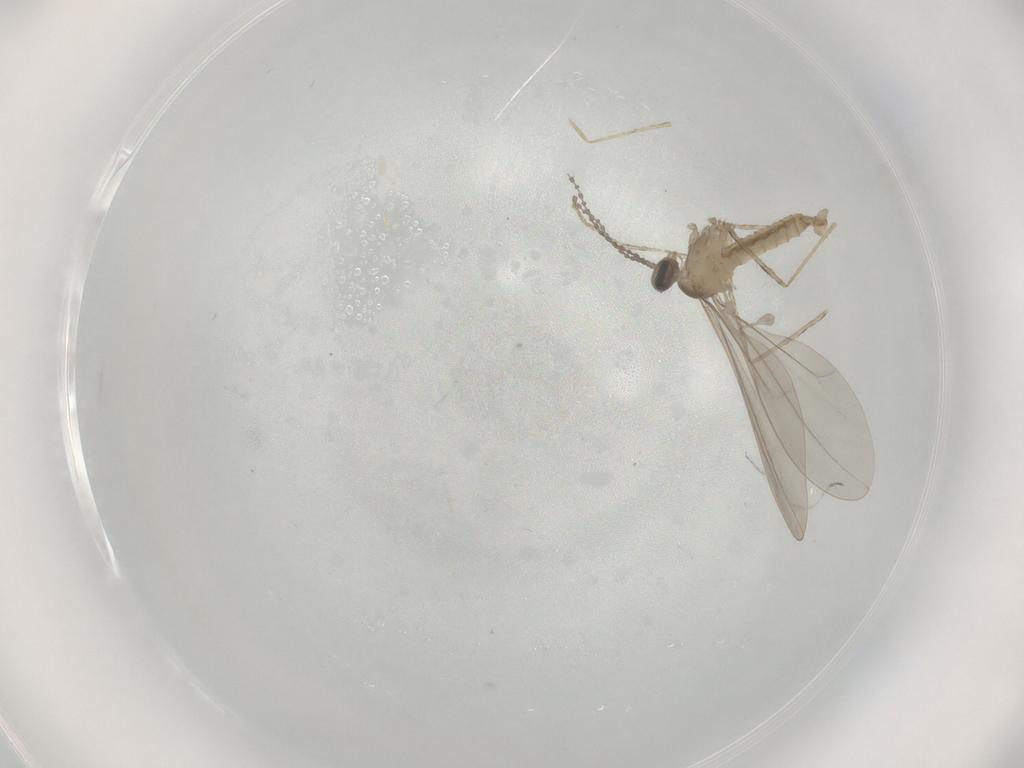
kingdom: Animalia
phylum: Arthropoda
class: Insecta
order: Diptera
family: Cecidomyiidae
